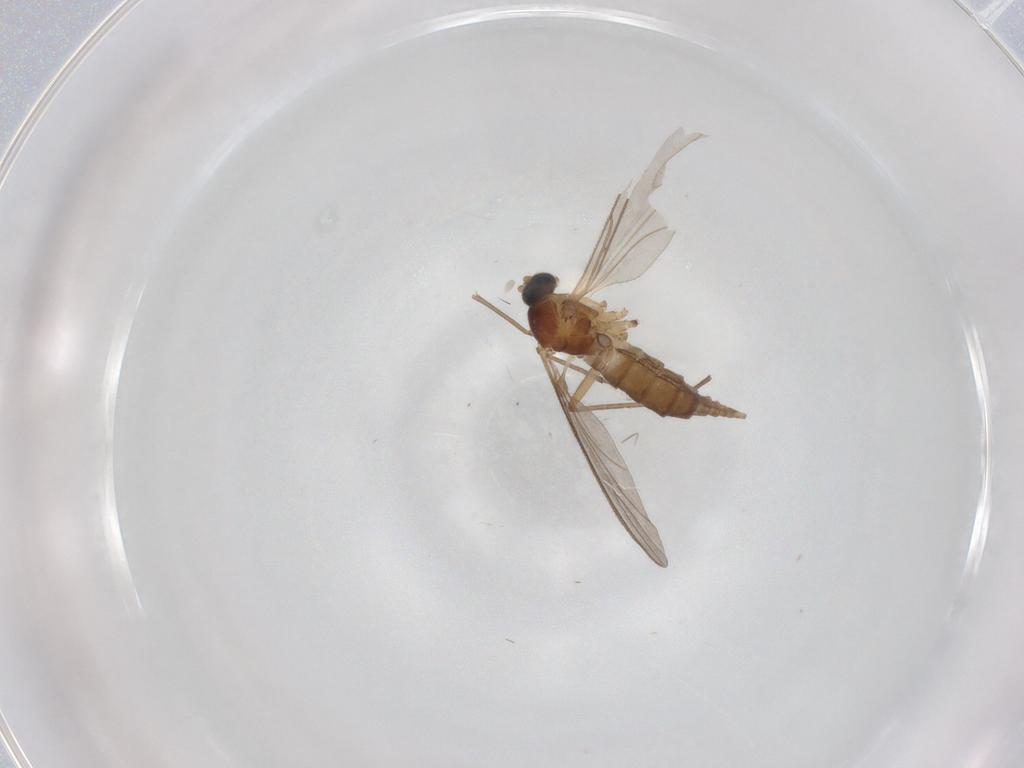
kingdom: Animalia
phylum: Arthropoda
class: Insecta
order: Diptera
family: Sciaridae
